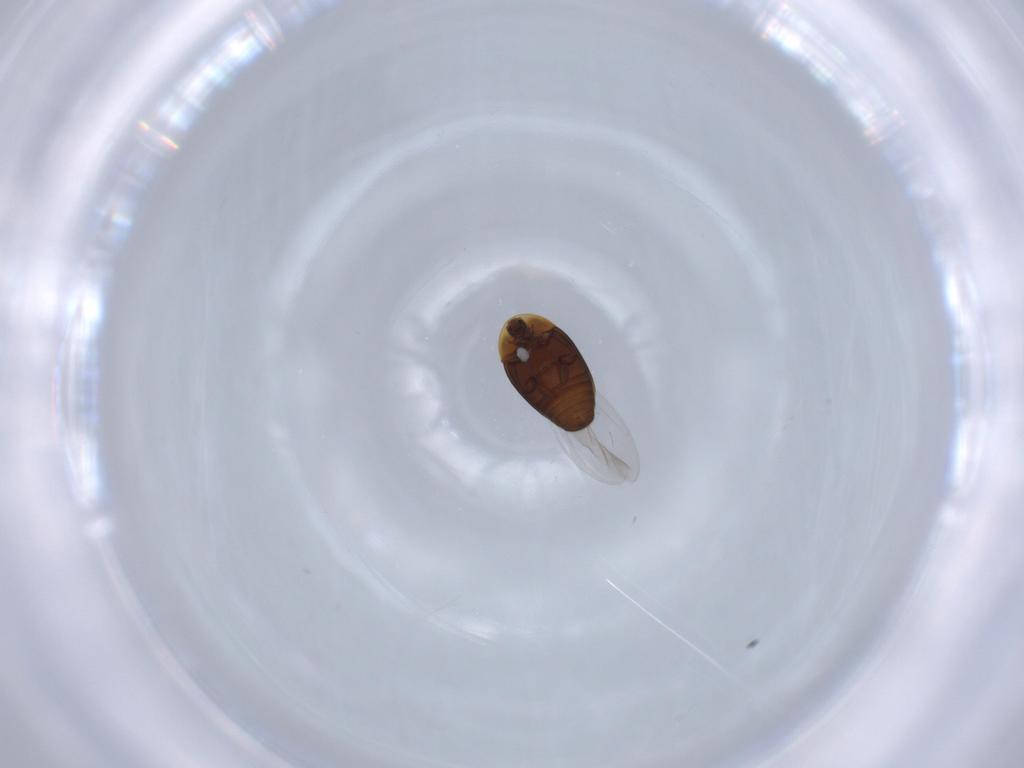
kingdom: Animalia
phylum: Arthropoda
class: Insecta
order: Coleoptera
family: Corylophidae
